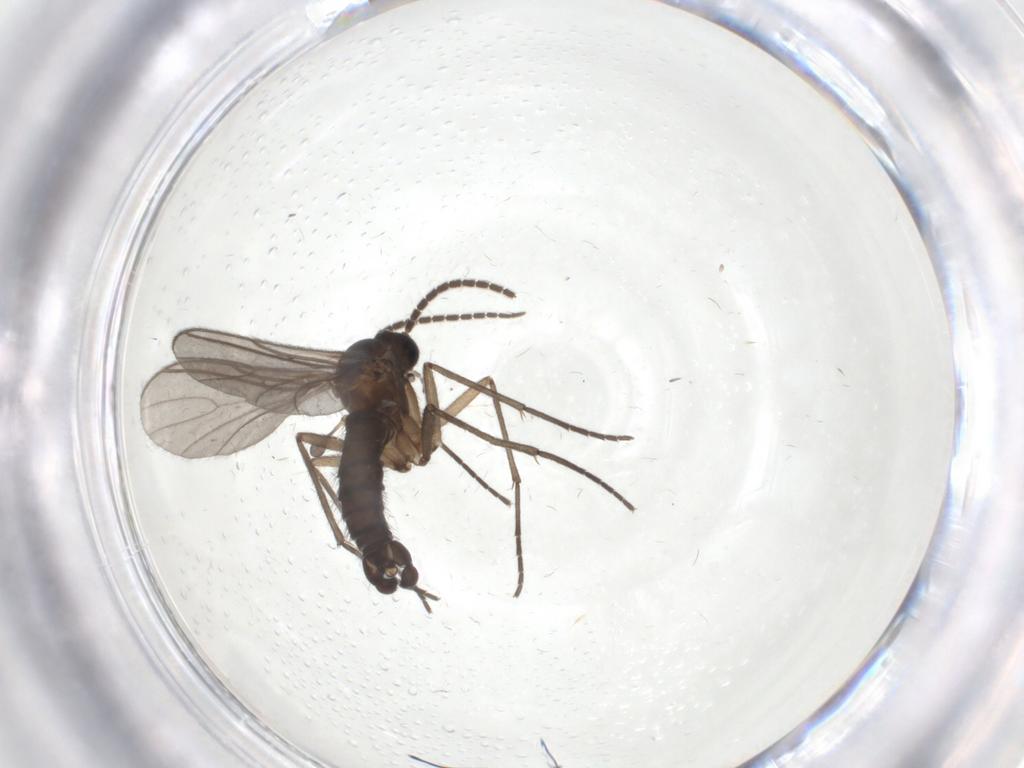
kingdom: Animalia
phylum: Arthropoda
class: Insecta
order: Diptera
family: Sciaridae
